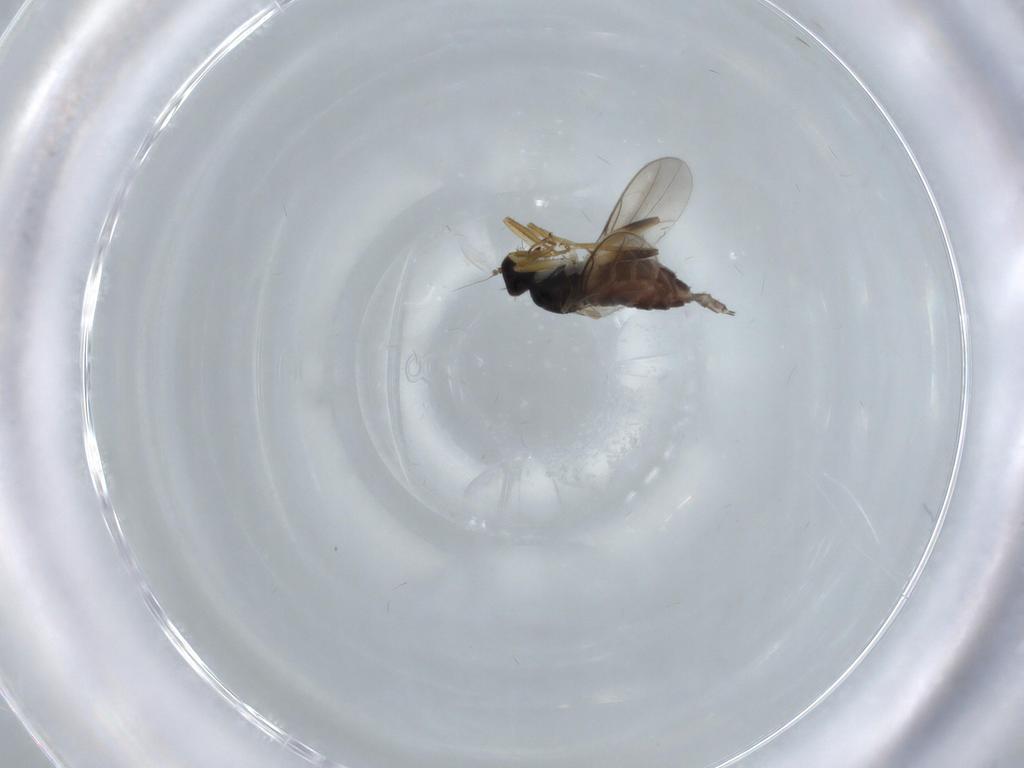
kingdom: Animalia
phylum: Arthropoda
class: Insecta
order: Diptera
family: Hybotidae
